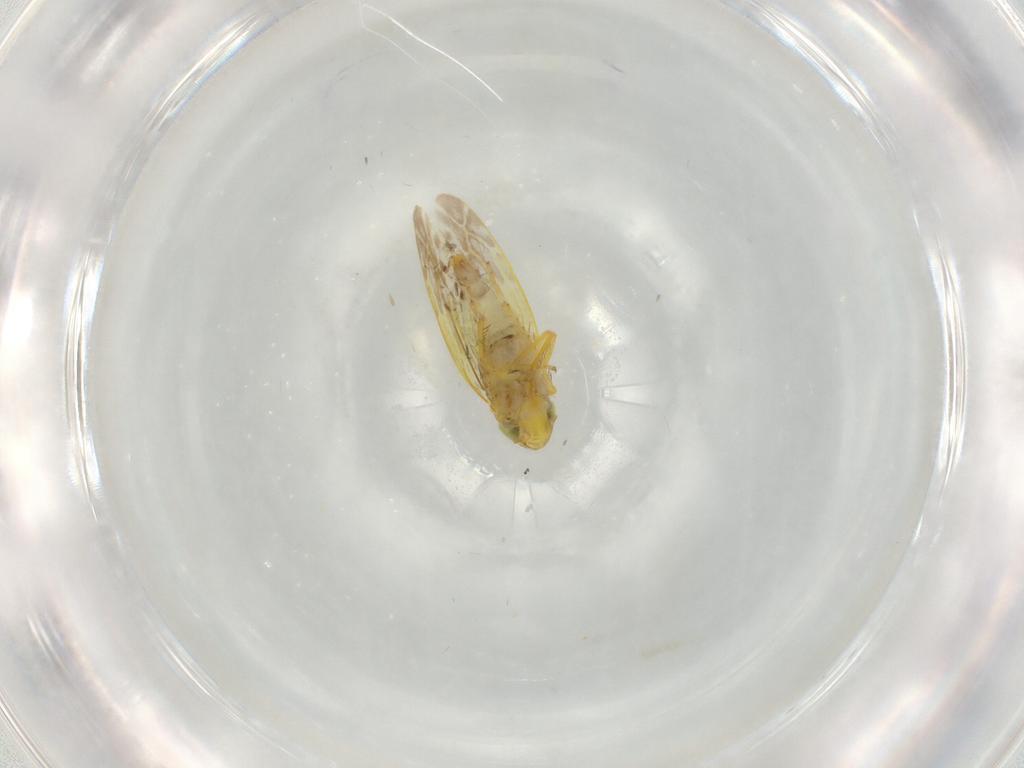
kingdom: Animalia
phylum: Arthropoda
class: Insecta
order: Hemiptera
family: Cicadellidae
